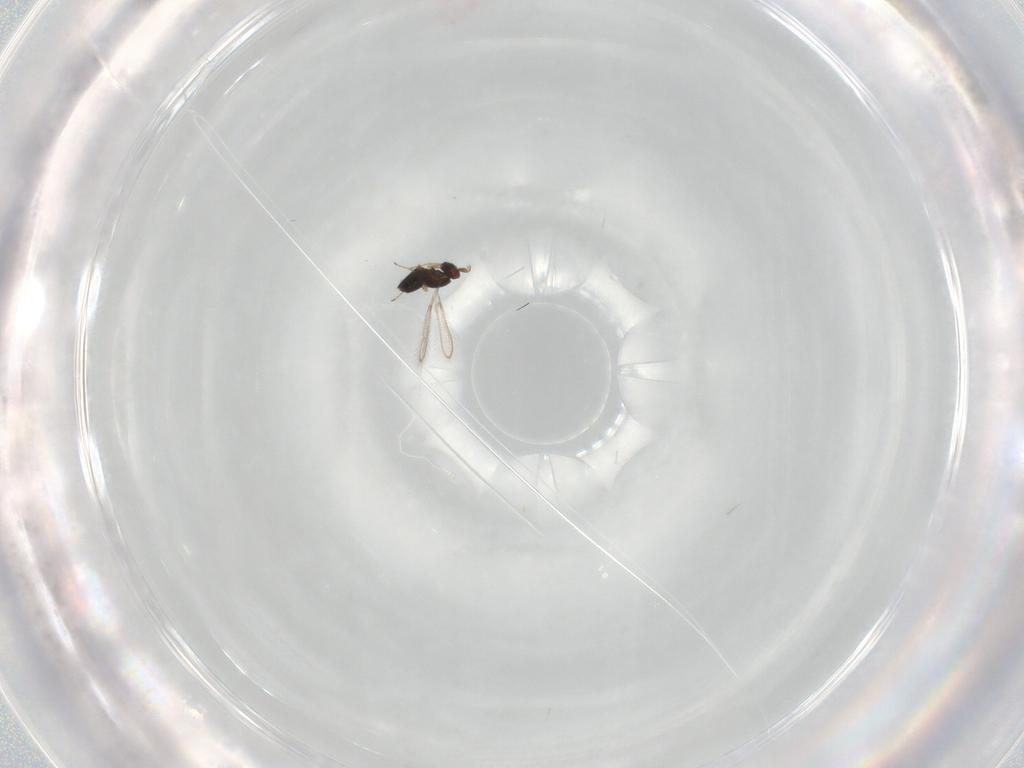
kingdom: Animalia
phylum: Arthropoda
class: Insecta
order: Hymenoptera
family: Ichneumonidae
